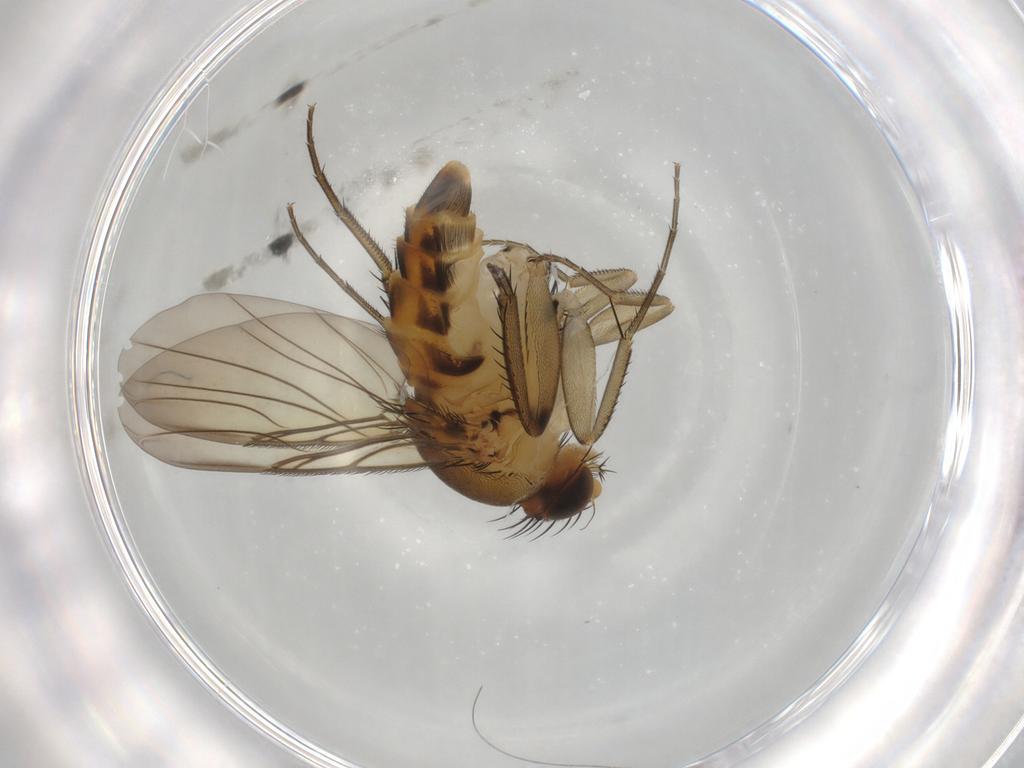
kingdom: Animalia
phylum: Arthropoda
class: Insecta
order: Diptera
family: Phoridae
